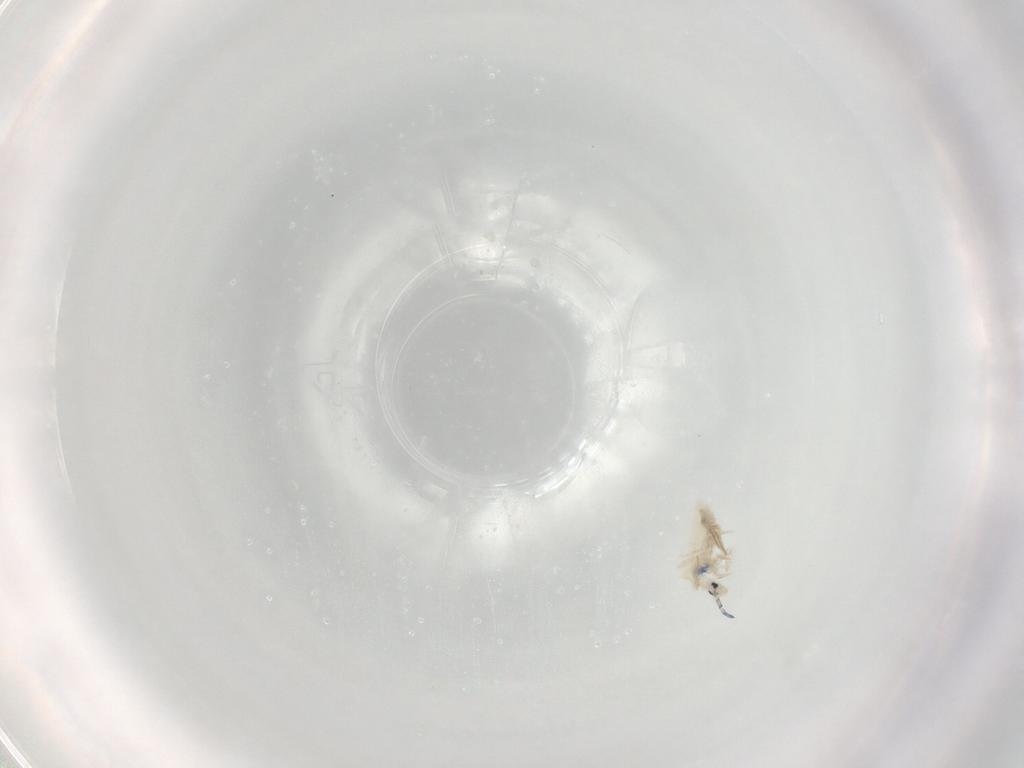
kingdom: Animalia
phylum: Arthropoda
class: Collembola
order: Entomobryomorpha
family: Entomobryidae
